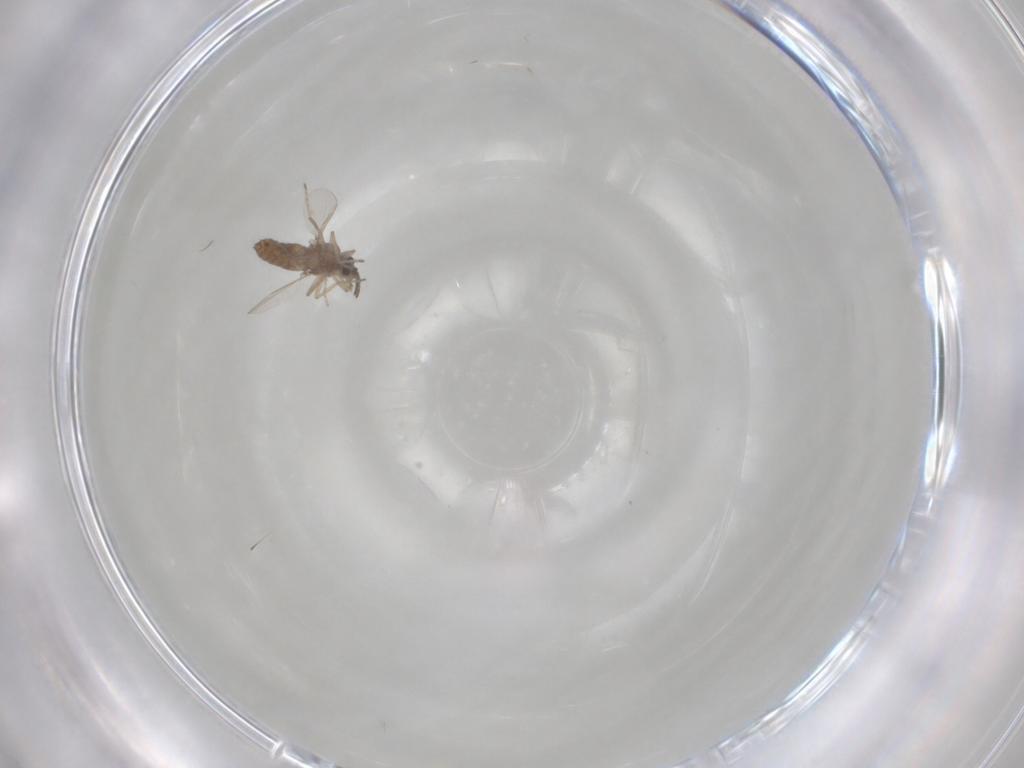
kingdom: Animalia
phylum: Arthropoda
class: Insecta
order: Diptera
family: Ceratopogonidae
